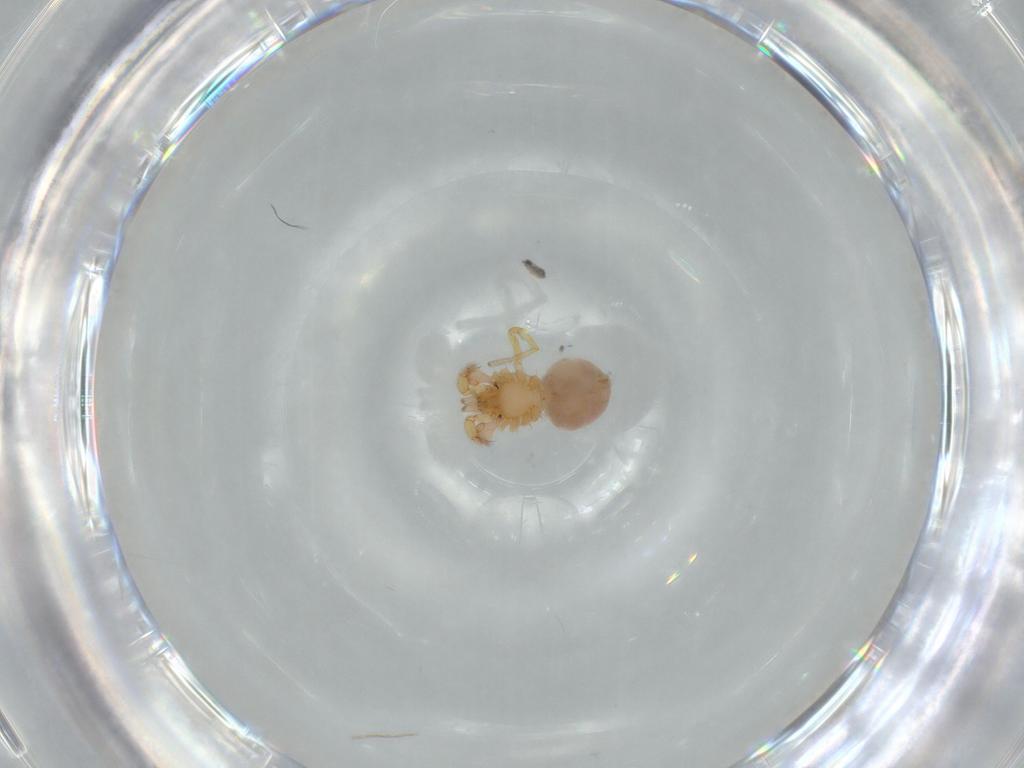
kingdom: Animalia
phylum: Arthropoda
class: Arachnida
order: Araneae
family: Oonopidae
